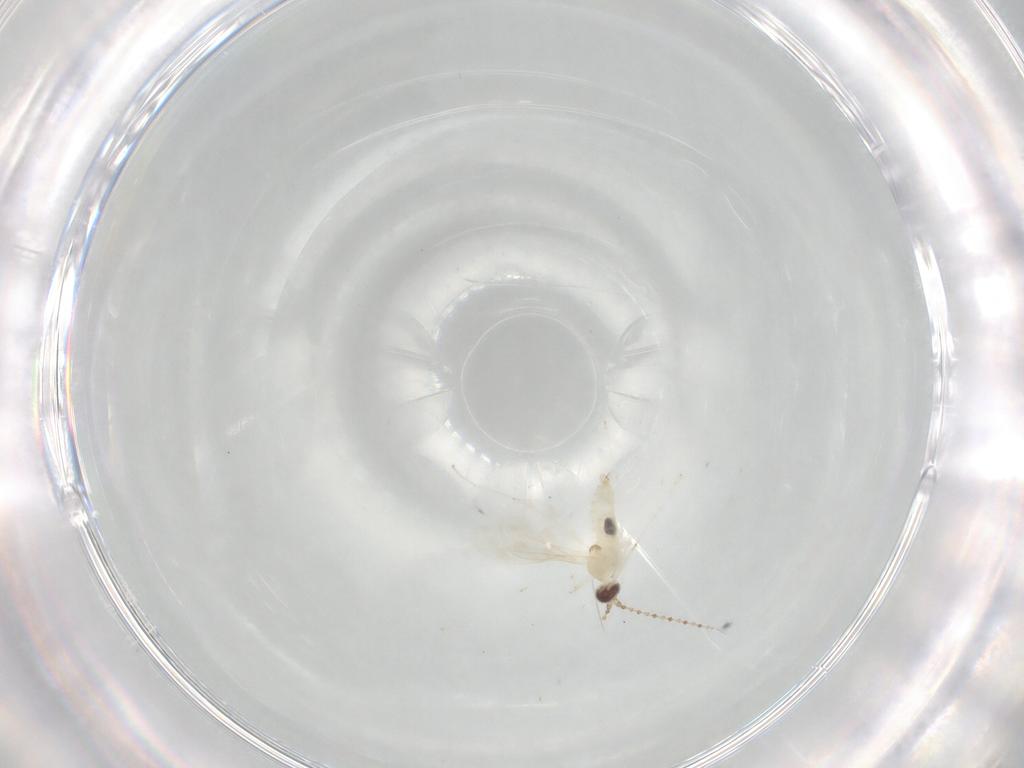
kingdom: Animalia
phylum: Arthropoda
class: Insecta
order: Diptera
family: Cecidomyiidae
